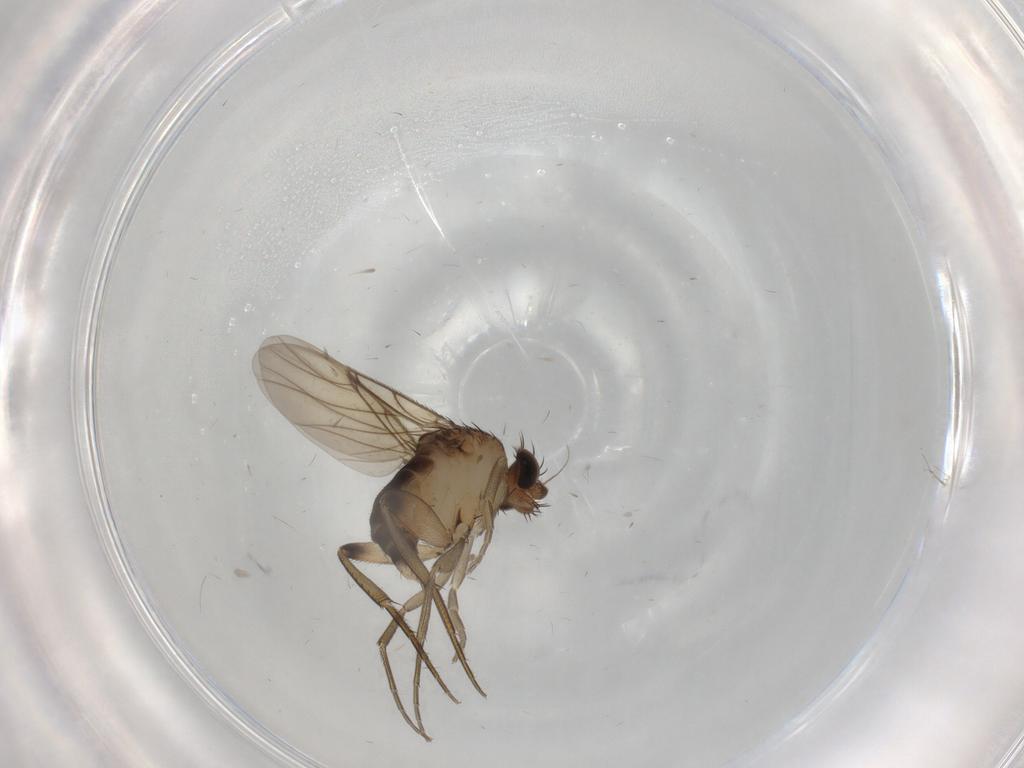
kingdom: Animalia
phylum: Arthropoda
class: Insecta
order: Diptera
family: Phoridae
